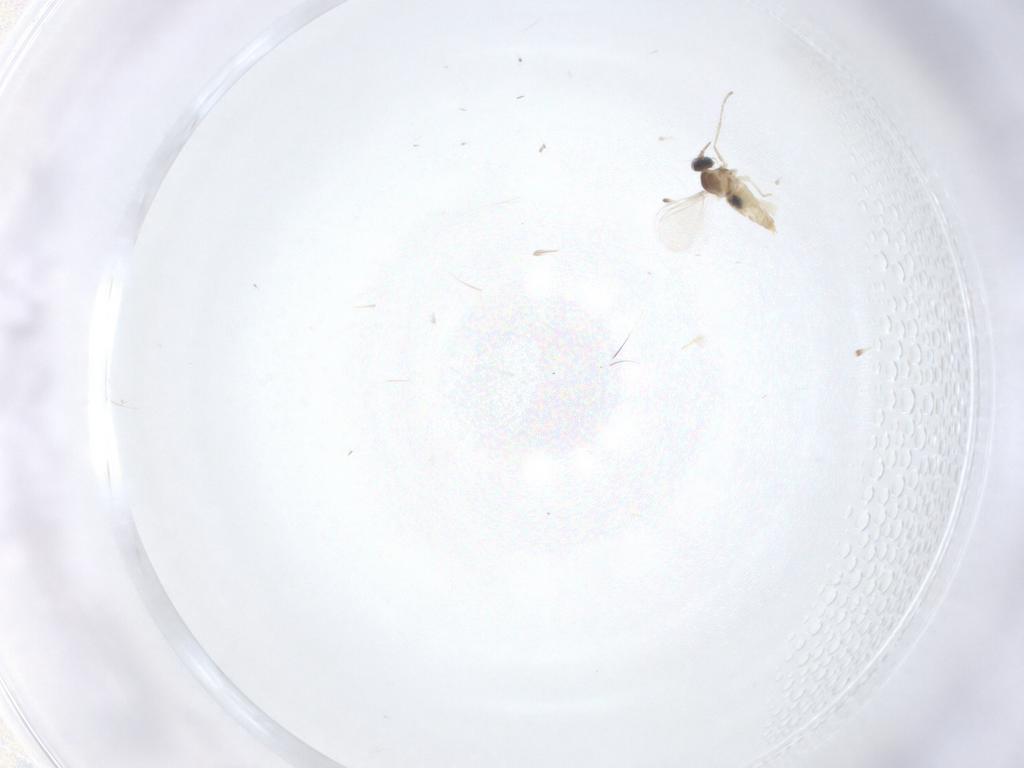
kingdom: Animalia
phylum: Arthropoda
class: Insecta
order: Diptera
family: Cecidomyiidae
